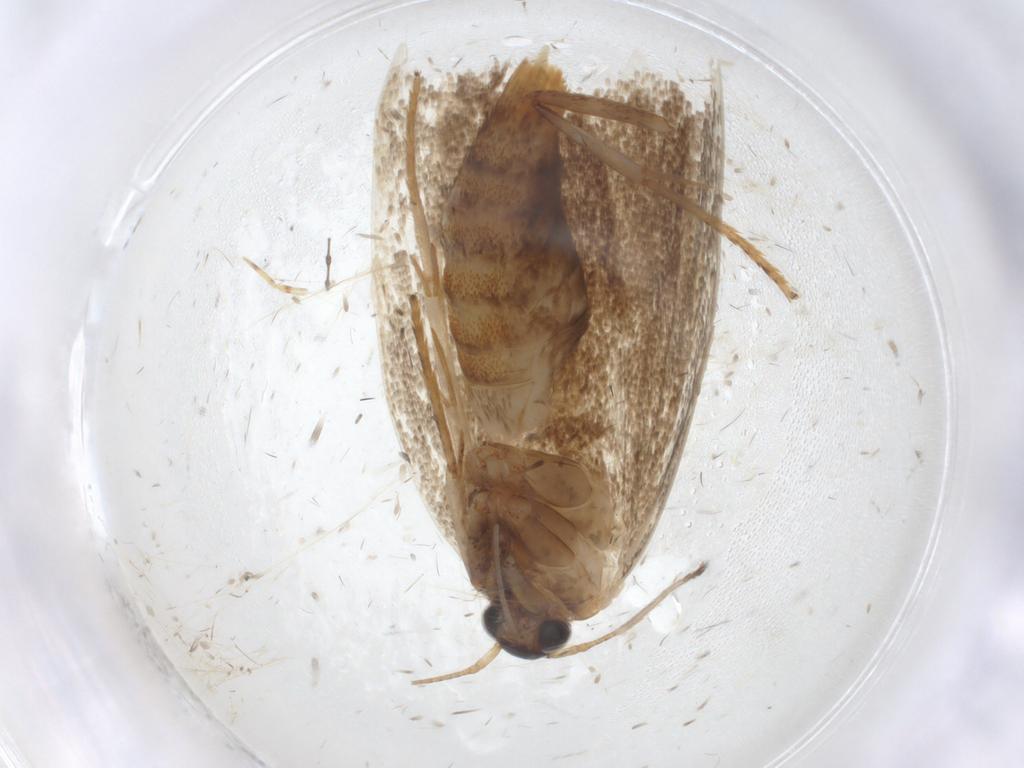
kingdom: Animalia
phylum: Arthropoda
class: Insecta
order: Lepidoptera
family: Oecophoridae
